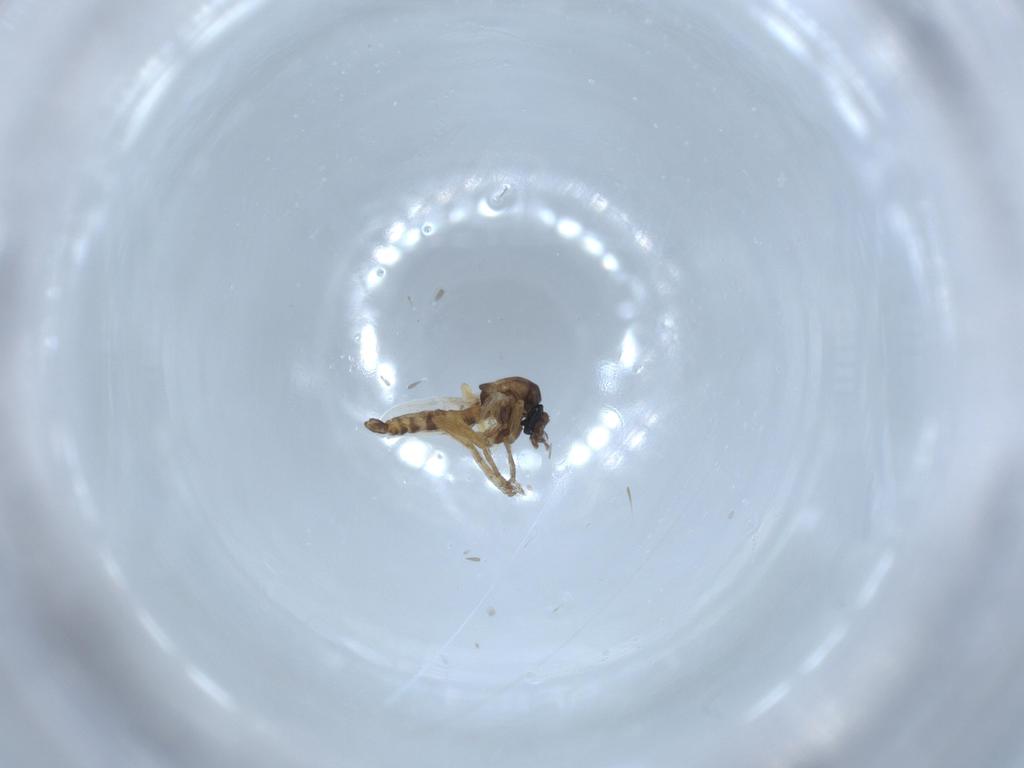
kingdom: Animalia
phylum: Arthropoda
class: Insecta
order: Diptera
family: Ceratopogonidae
